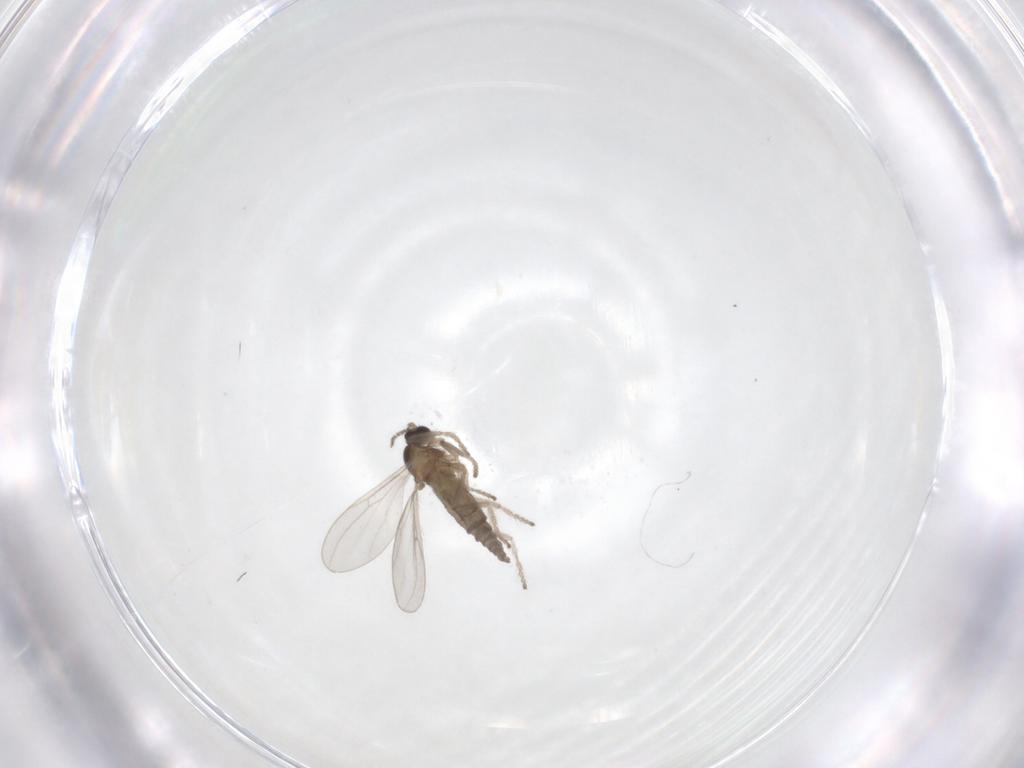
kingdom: Animalia
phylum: Arthropoda
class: Insecta
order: Diptera
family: Cecidomyiidae
